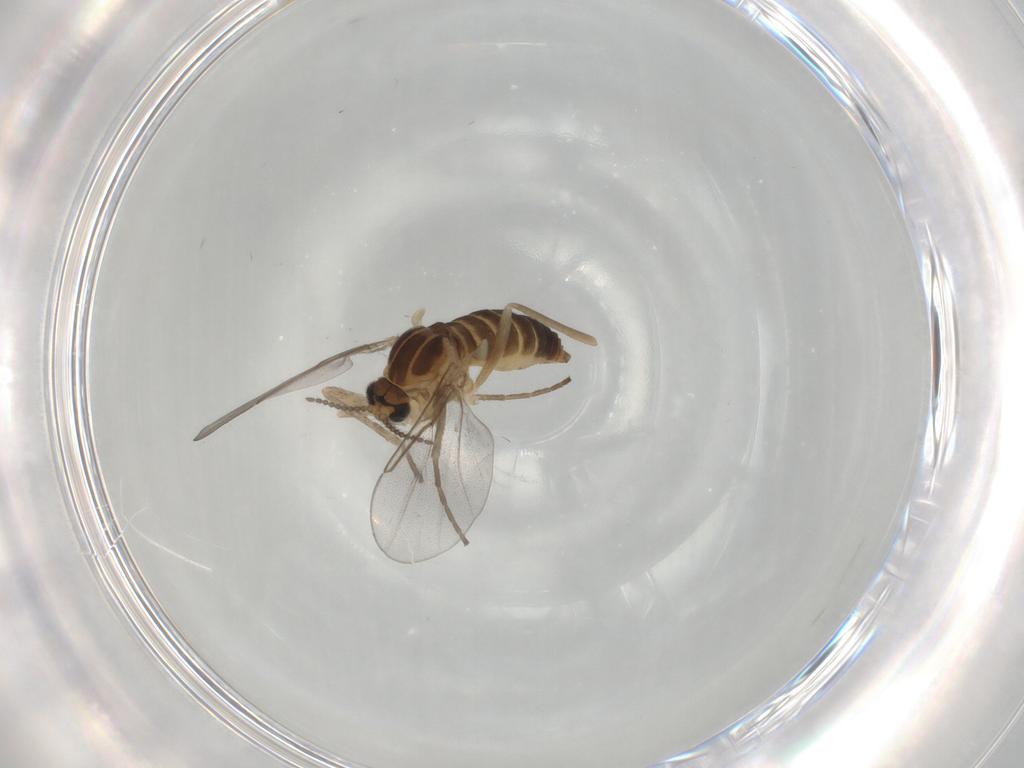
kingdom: Animalia
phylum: Arthropoda
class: Insecta
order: Diptera
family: Cecidomyiidae
